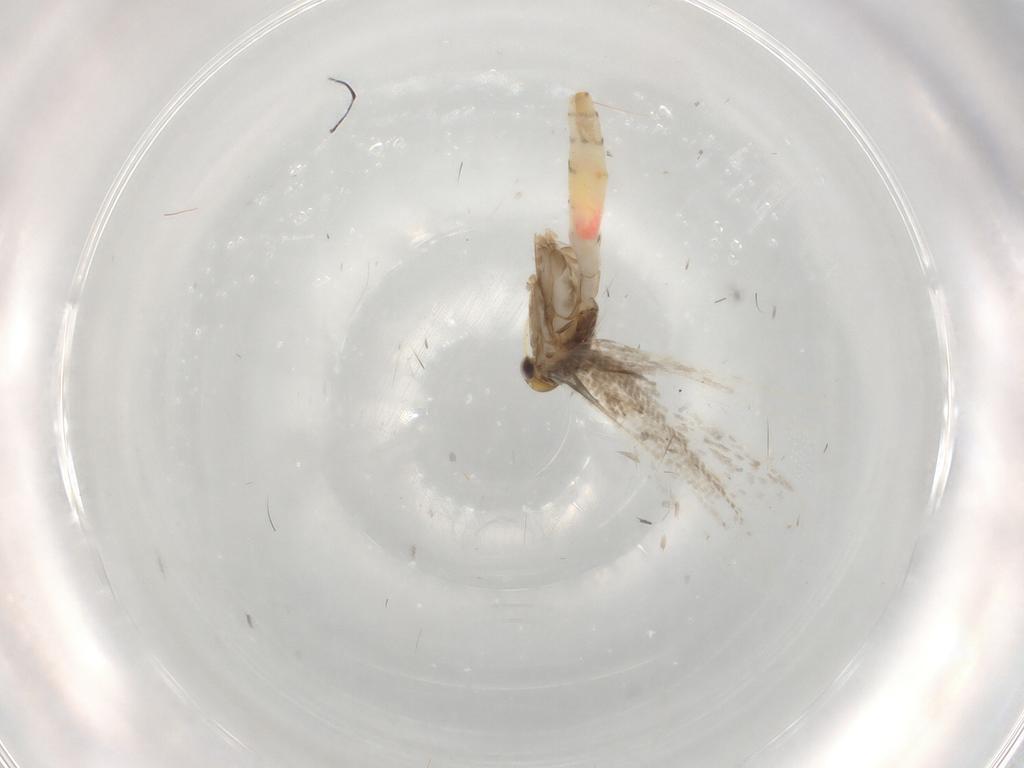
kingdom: Animalia
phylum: Arthropoda
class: Insecta
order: Lepidoptera
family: Gracillariidae
